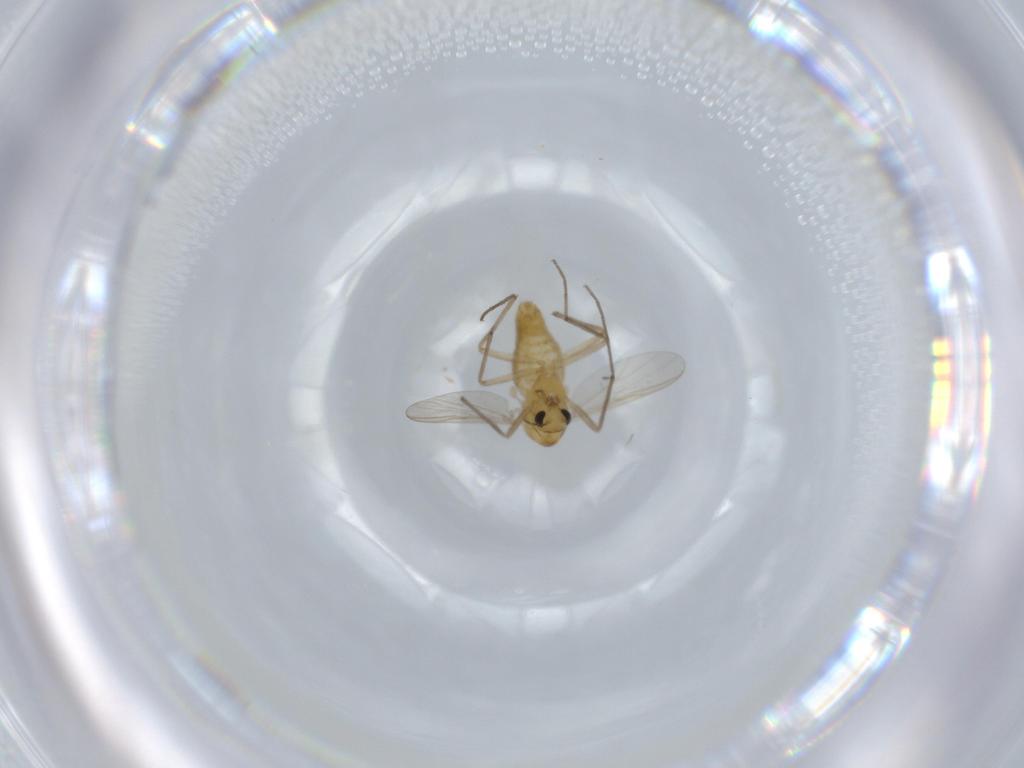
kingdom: Animalia
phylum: Arthropoda
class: Insecta
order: Diptera
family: Chironomidae
